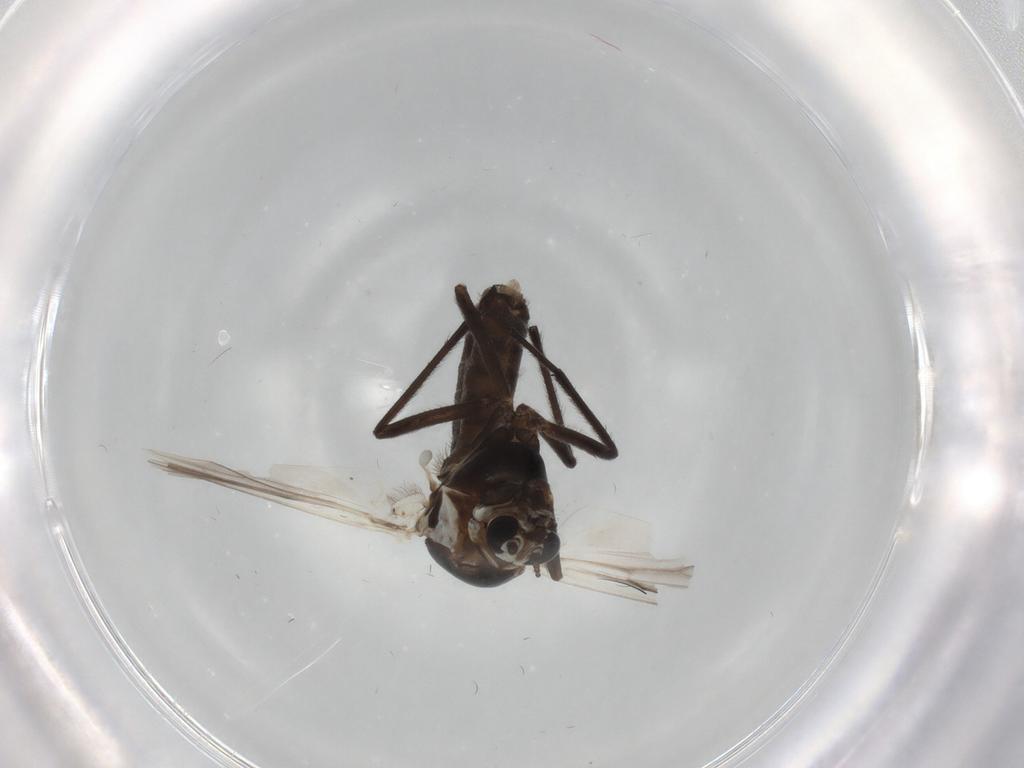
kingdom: Animalia
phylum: Arthropoda
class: Insecta
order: Diptera
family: Chironomidae
